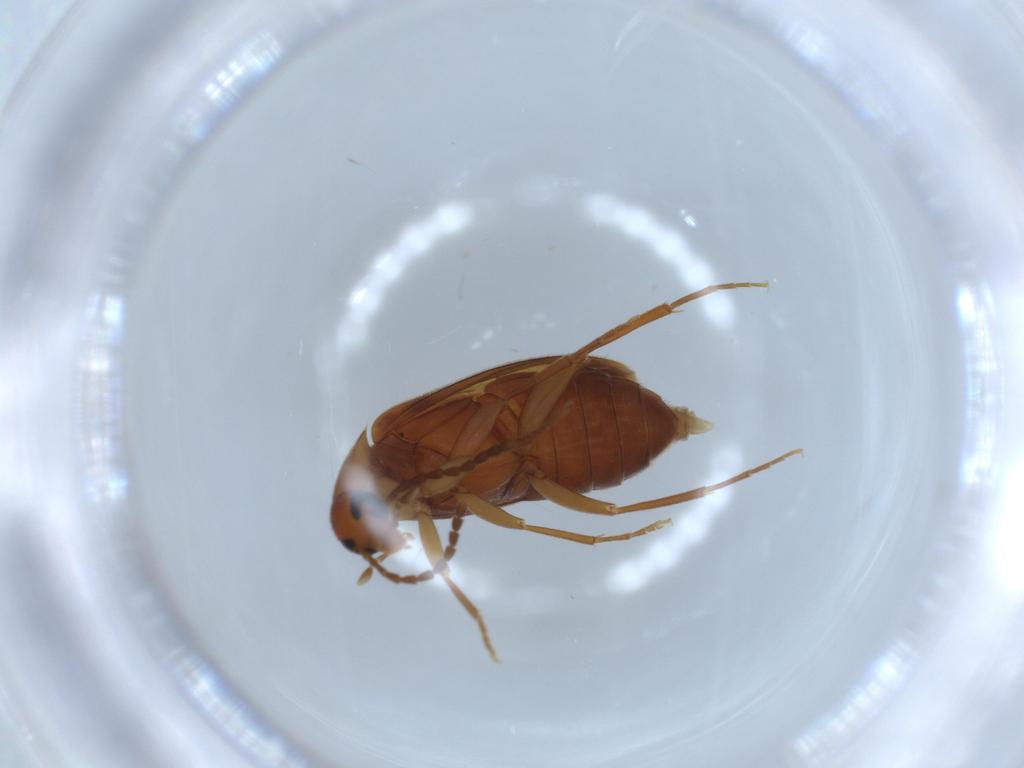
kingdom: Animalia
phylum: Arthropoda
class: Insecta
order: Coleoptera
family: Scraptiidae
